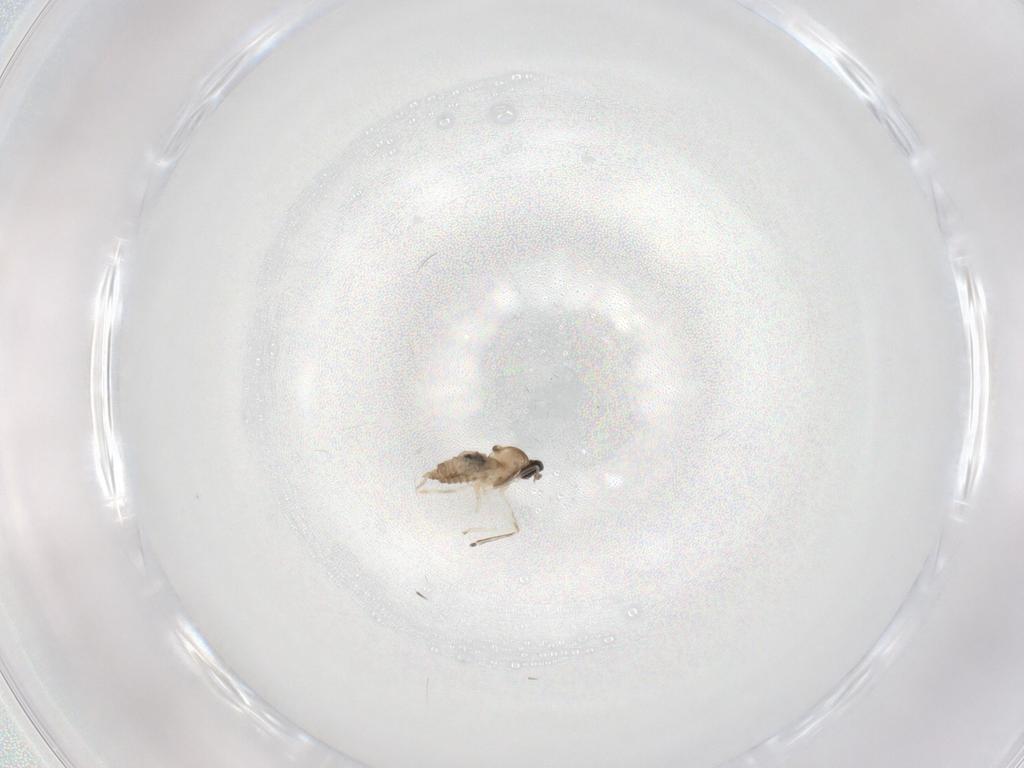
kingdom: Animalia
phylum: Arthropoda
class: Insecta
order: Diptera
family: Cecidomyiidae
